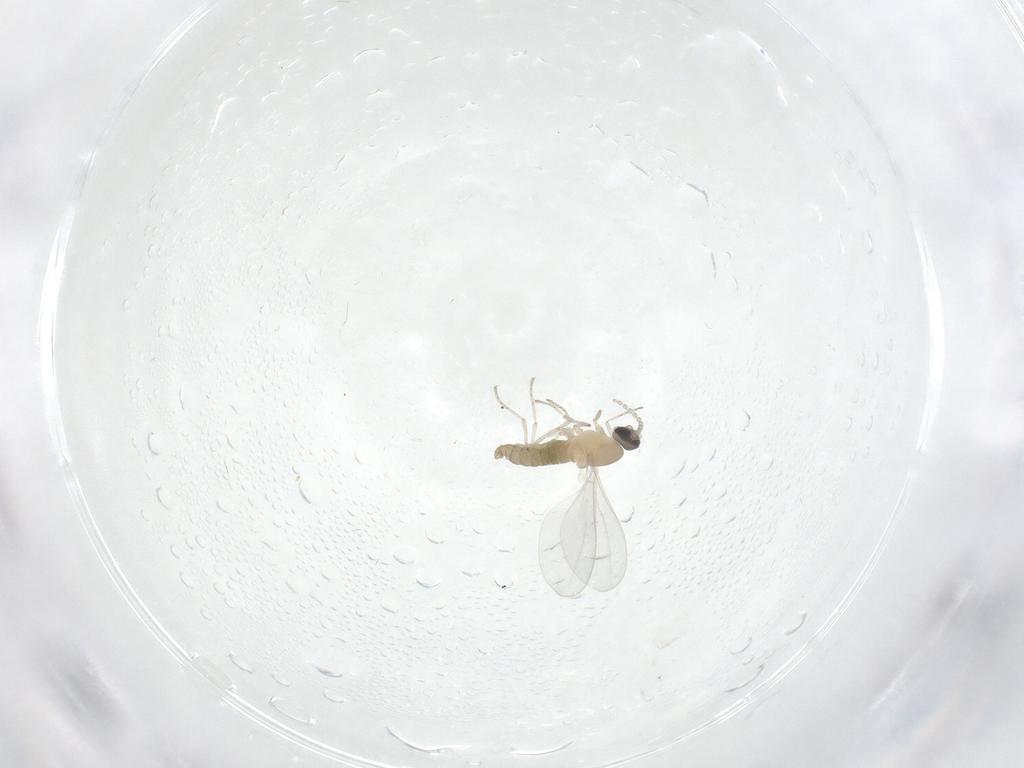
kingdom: Animalia
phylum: Arthropoda
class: Insecta
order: Diptera
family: Cecidomyiidae
